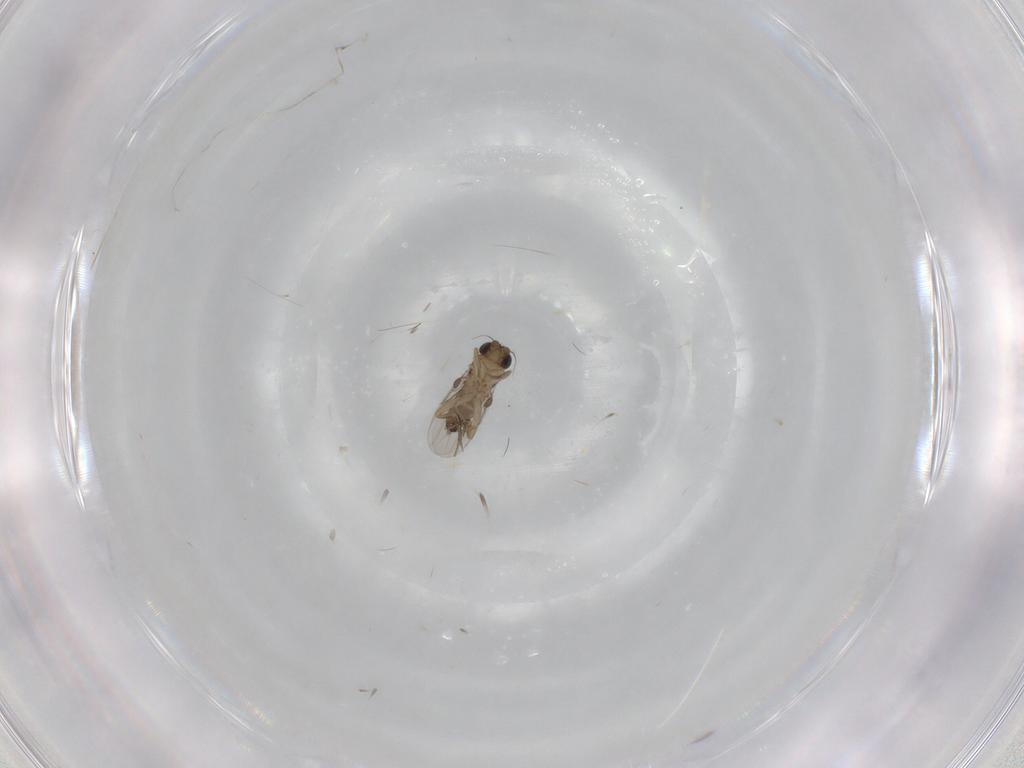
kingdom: Animalia
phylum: Arthropoda
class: Insecta
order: Diptera
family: Phoridae
